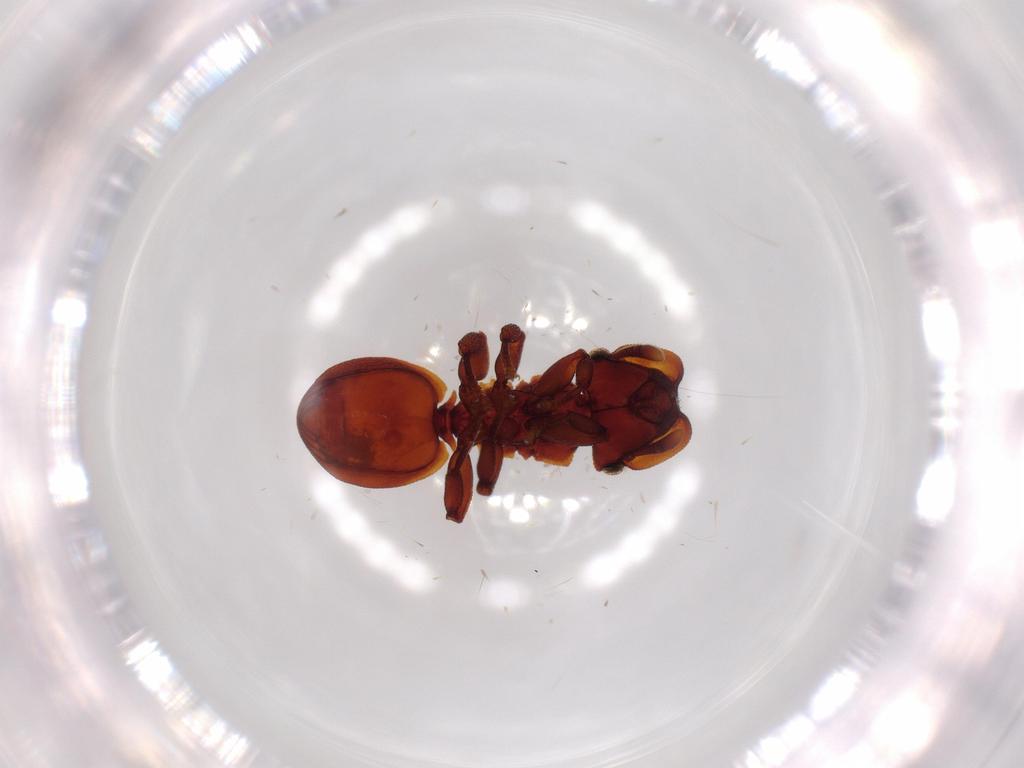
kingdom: Animalia
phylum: Arthropoda
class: Insecta
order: Hymenoptera
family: Formicidae
